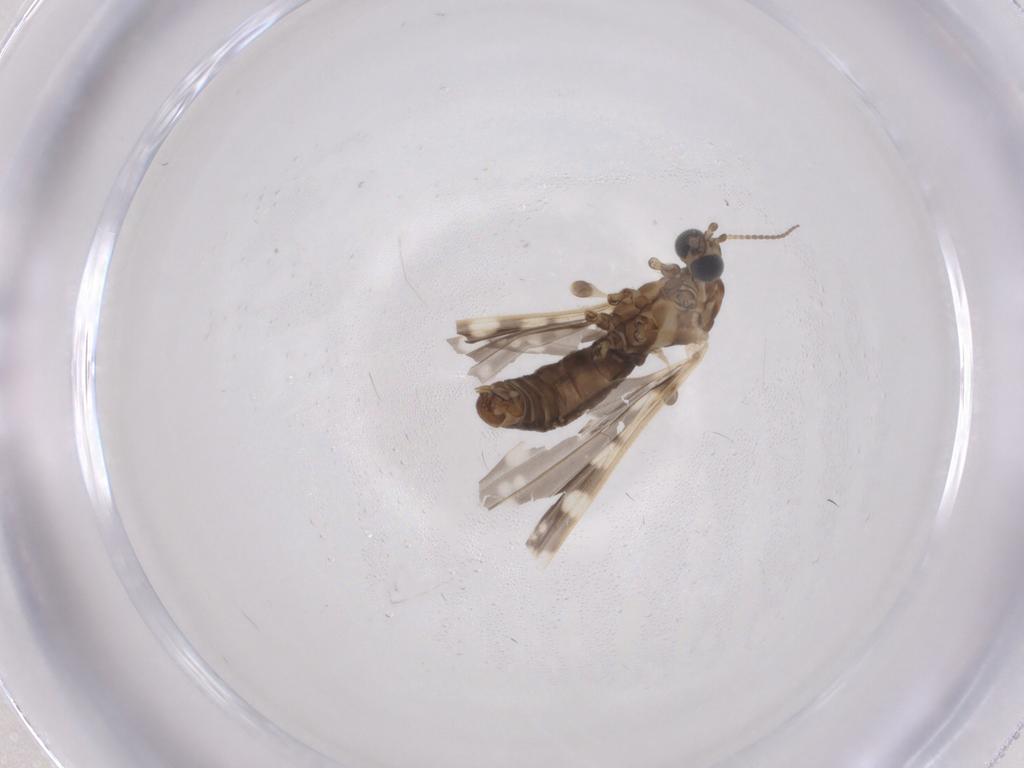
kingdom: Animalia
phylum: Arthropoda
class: Insecta
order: Diptera
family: Limoniidae
